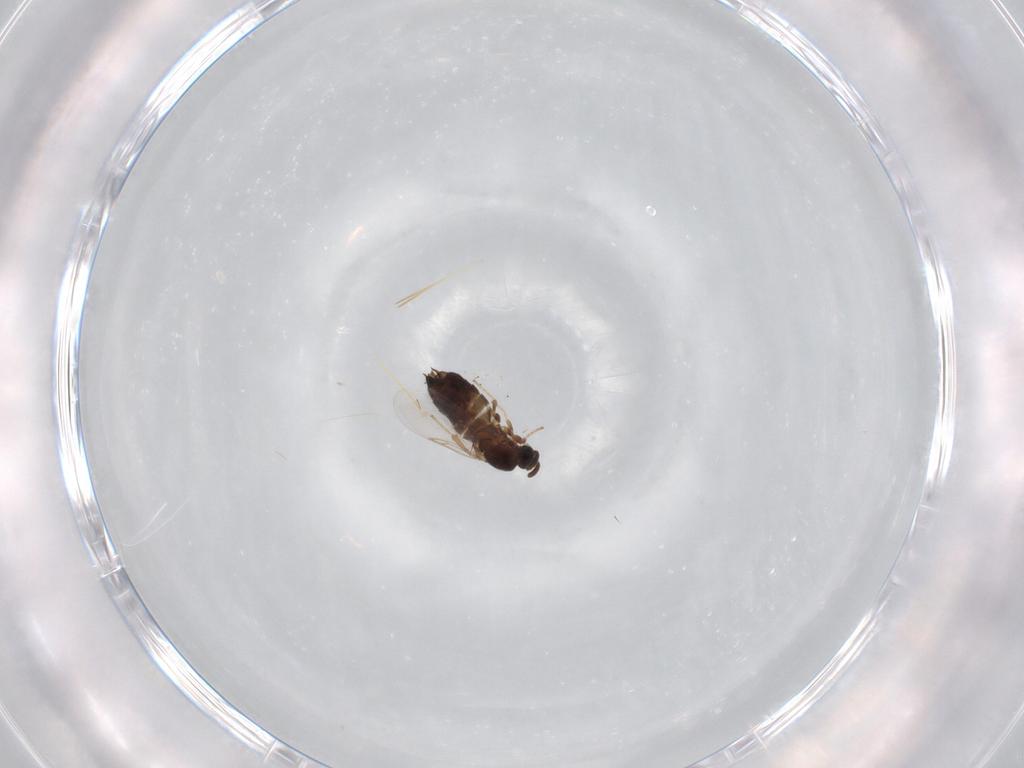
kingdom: Animalia
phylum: Arthropoda
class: Insecta
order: Diptera
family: Scatopsidae
